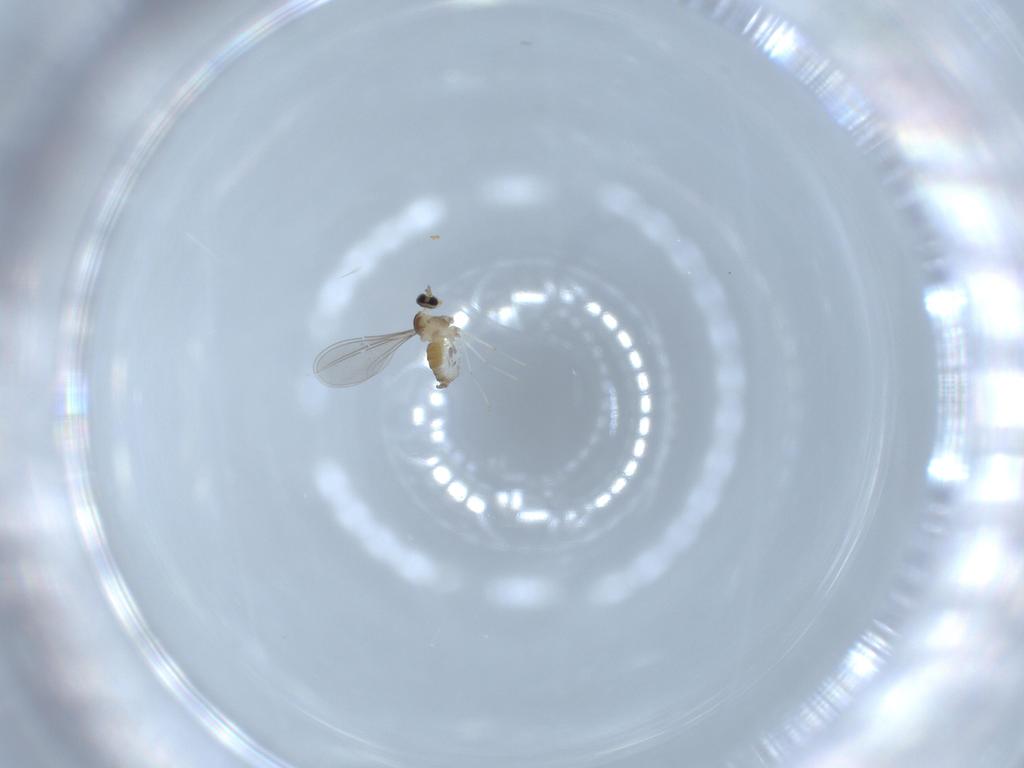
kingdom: Animalia
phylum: Arthropoda
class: Insecta
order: Diptera
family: Cecidomyiidae
